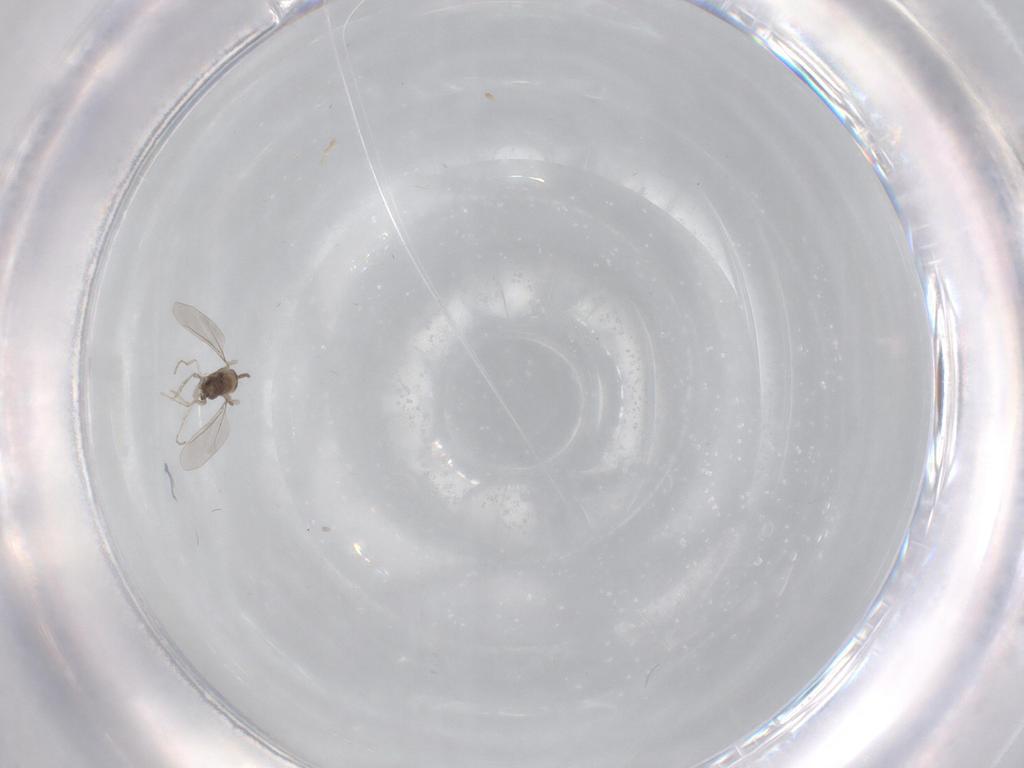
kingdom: Animalia
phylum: Arthropoda
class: Insecta
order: Diptera
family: Cecidomyiidae
